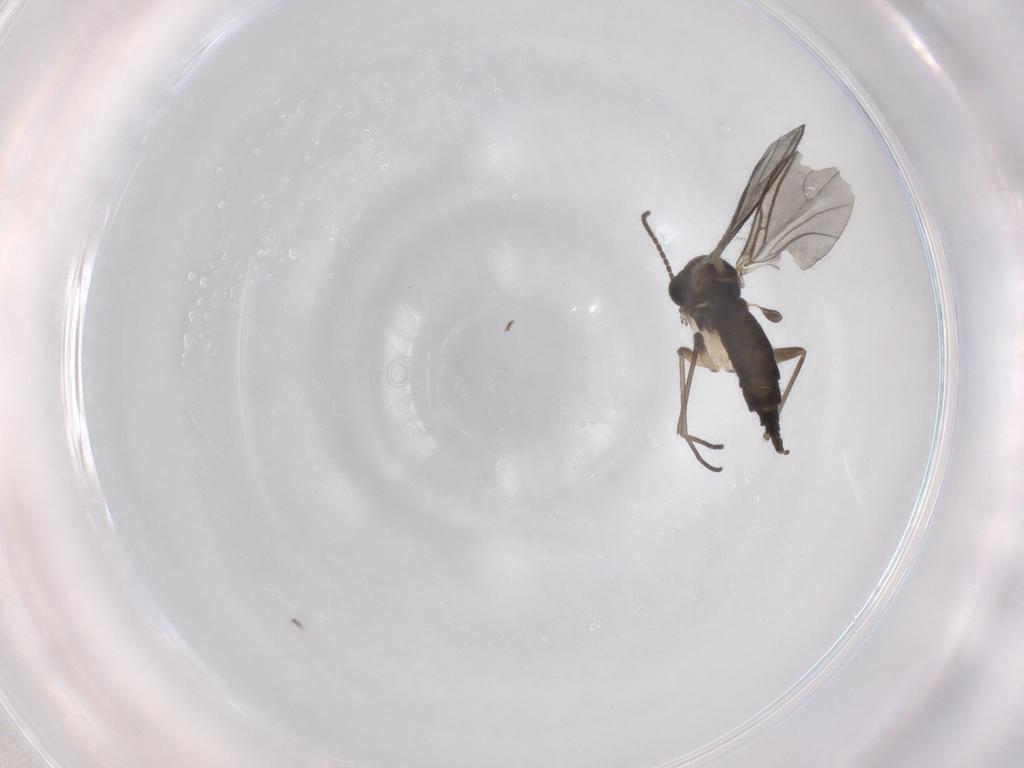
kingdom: Animalia
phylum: Arthropoda
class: Insecta
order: Diptera
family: Sciaridae
